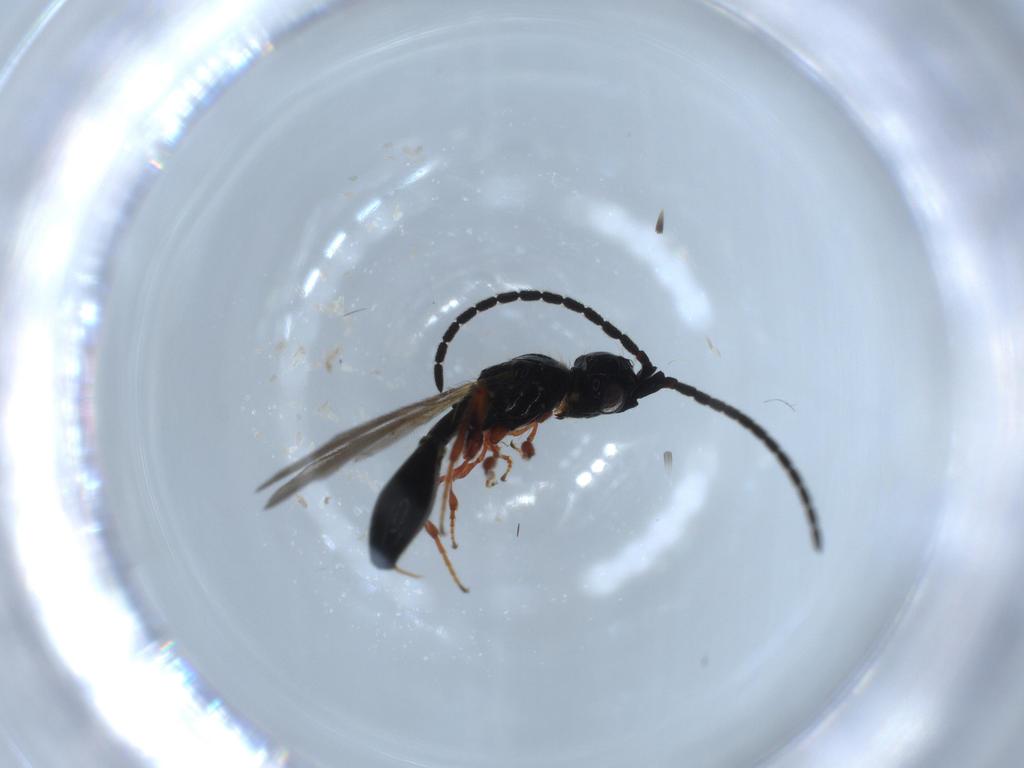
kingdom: Animalia
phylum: Arthropoda
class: Insecta
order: Hymenoptera
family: Diapriidae
